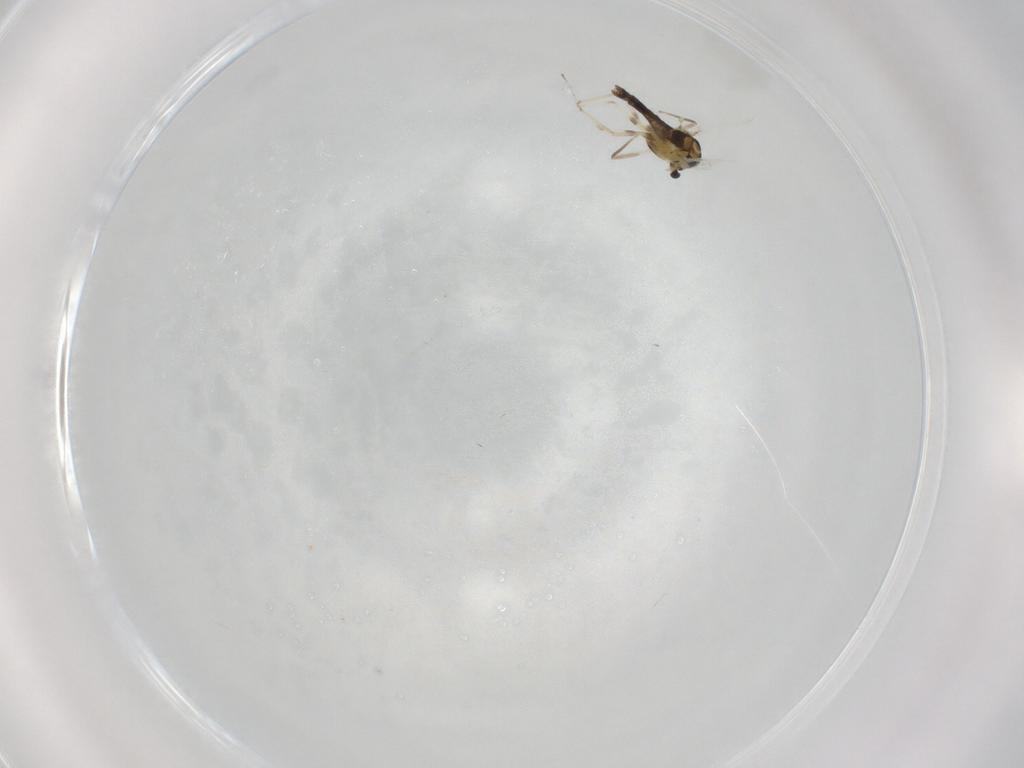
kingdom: Animalia
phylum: Arthropoda
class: Insecta
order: Diptera
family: Chironomidae
